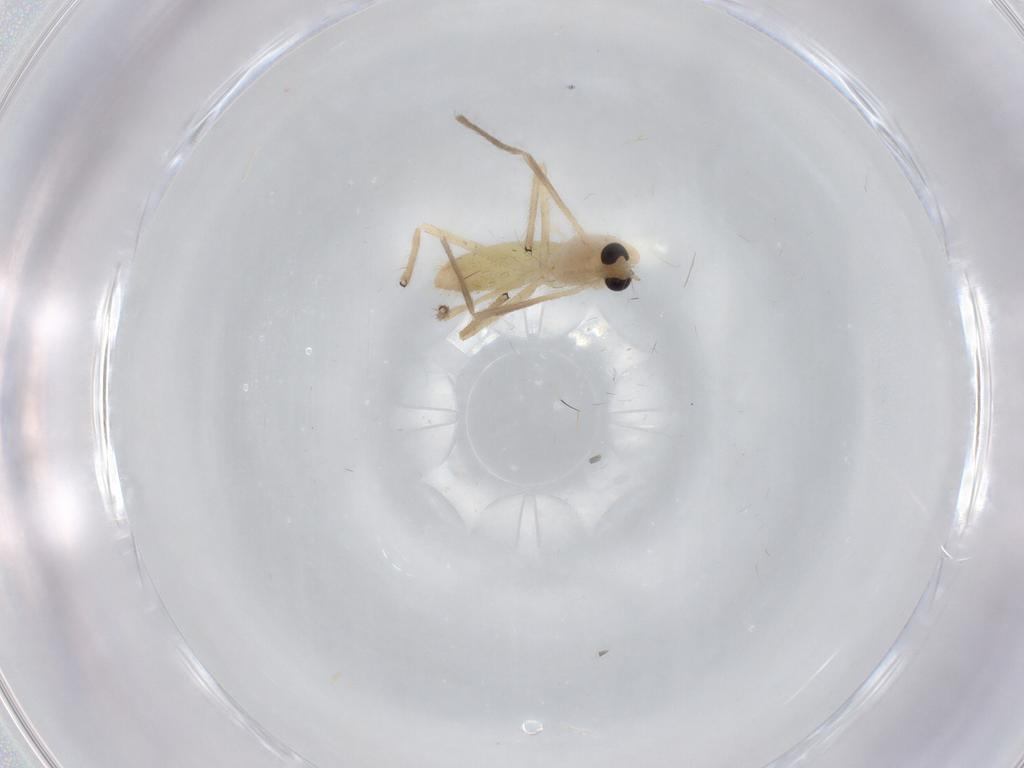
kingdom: Animalia
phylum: Arthropoda
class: Insecta
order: Diptera
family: Chironomidae
